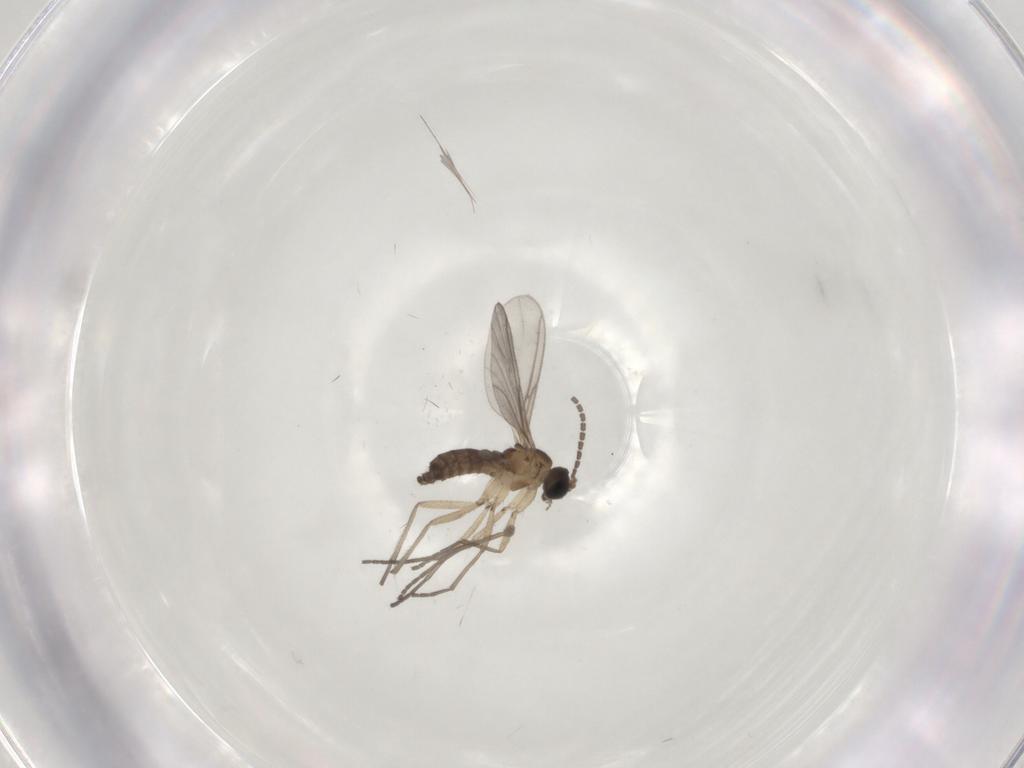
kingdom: Animalia
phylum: Arthropoda
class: Insecta
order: Diptera
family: Sciaridae
